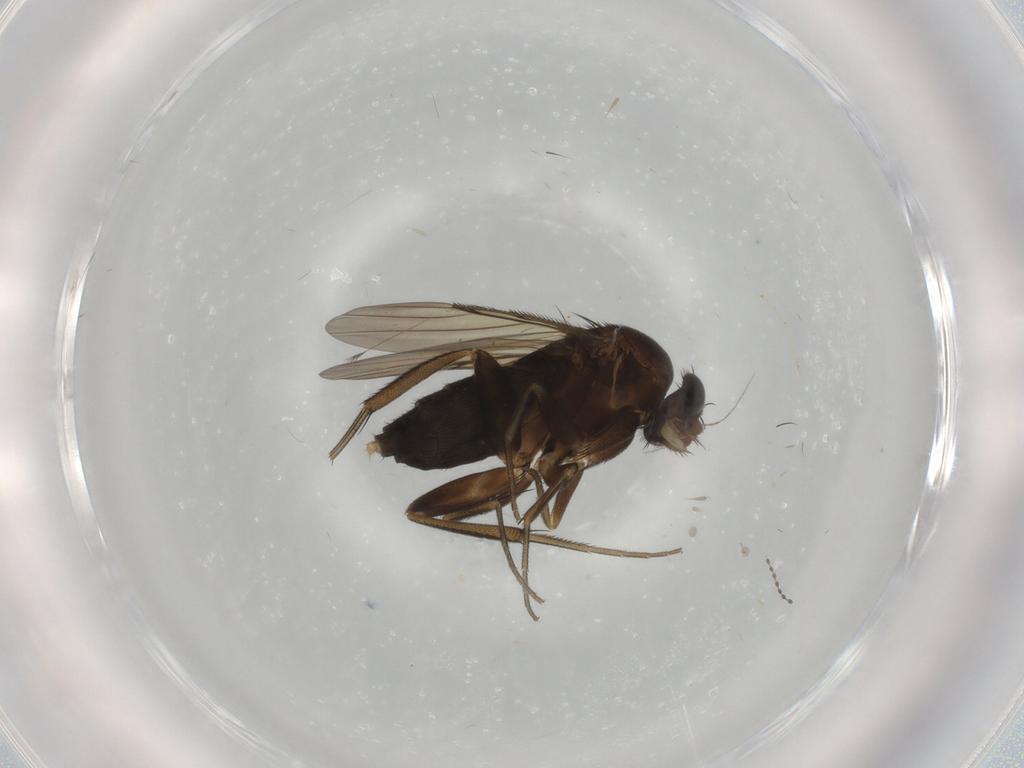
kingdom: Animalia
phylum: Arthropoda
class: Insecta
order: Diptera
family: Phoridae
